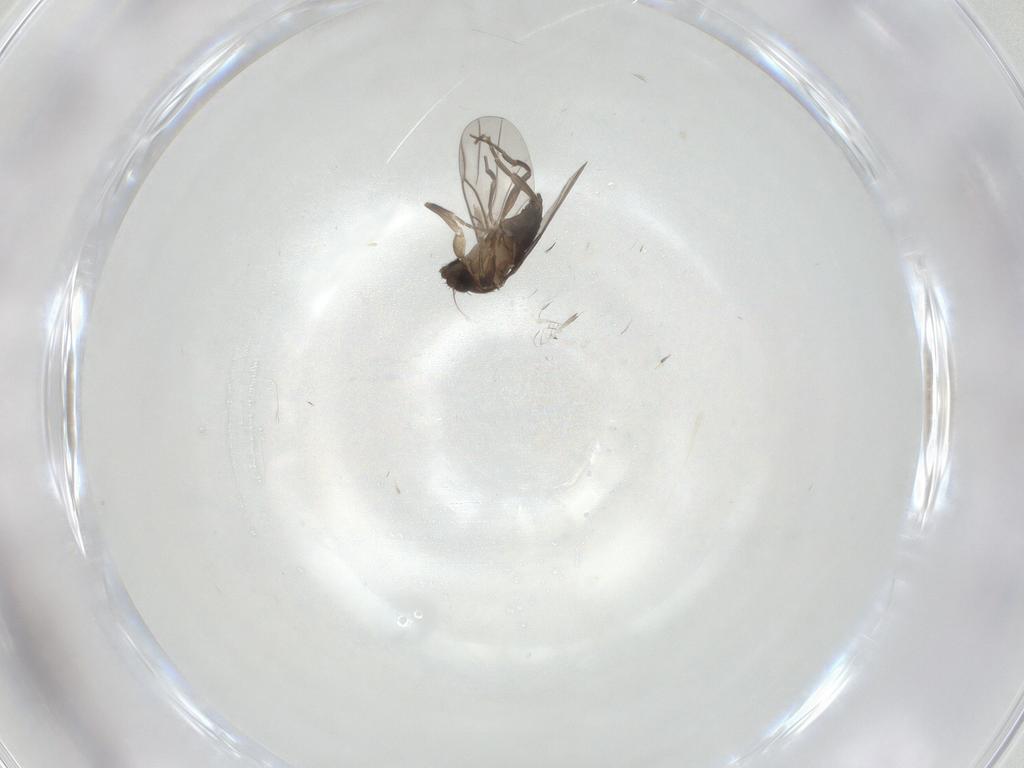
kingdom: Animalia
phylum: Arthropoda
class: Insecta
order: Diptera
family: Phoridae
